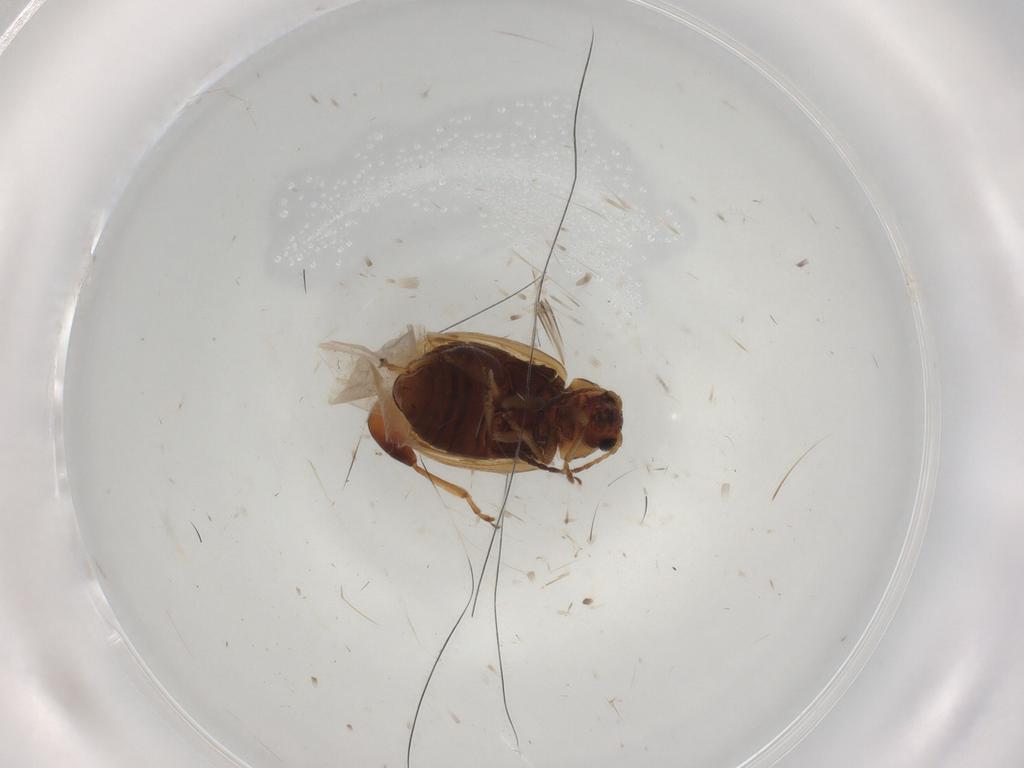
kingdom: Animalia
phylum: Arthropoda
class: Insecta
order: Coleoptera
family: Chrysomelidae
